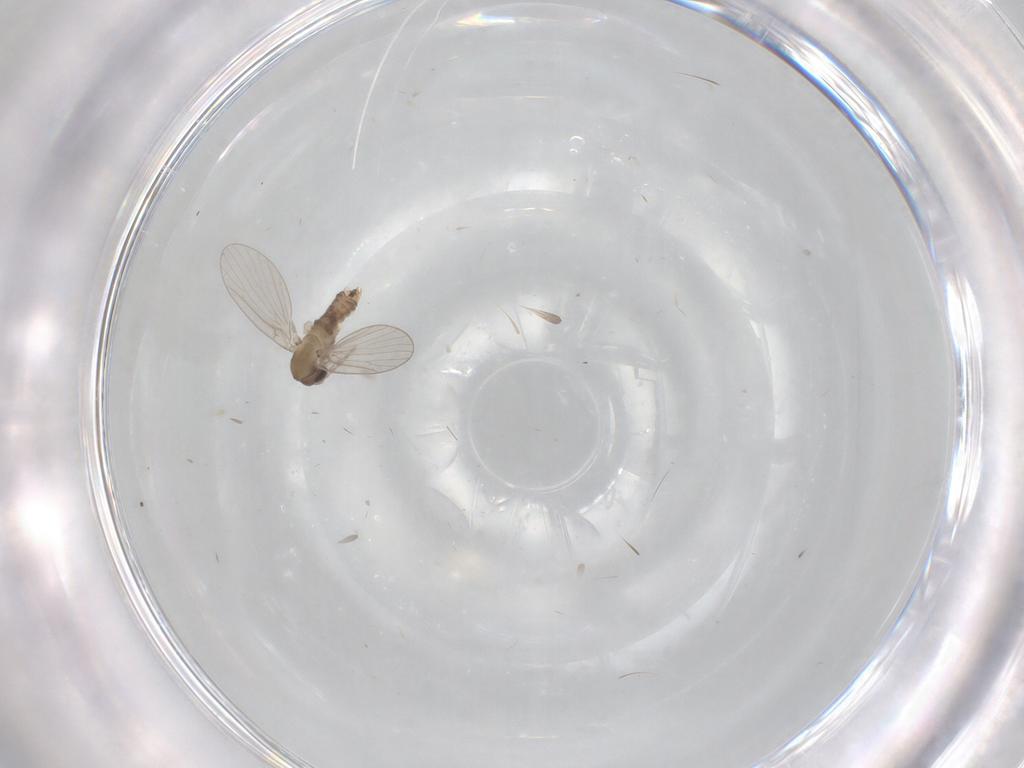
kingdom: Animalia
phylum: Arthropoda
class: Insecta
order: Diptera
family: Psychodidae
